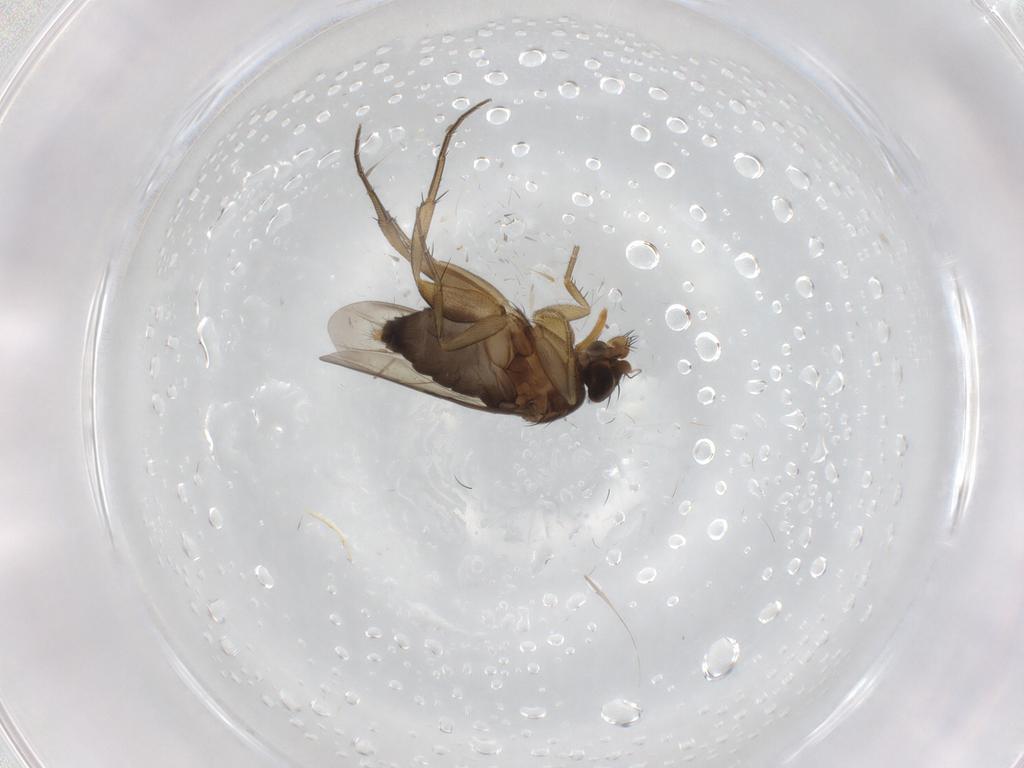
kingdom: Animalia
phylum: Arthropoda
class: Insecta
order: Diptera
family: Phoridae
